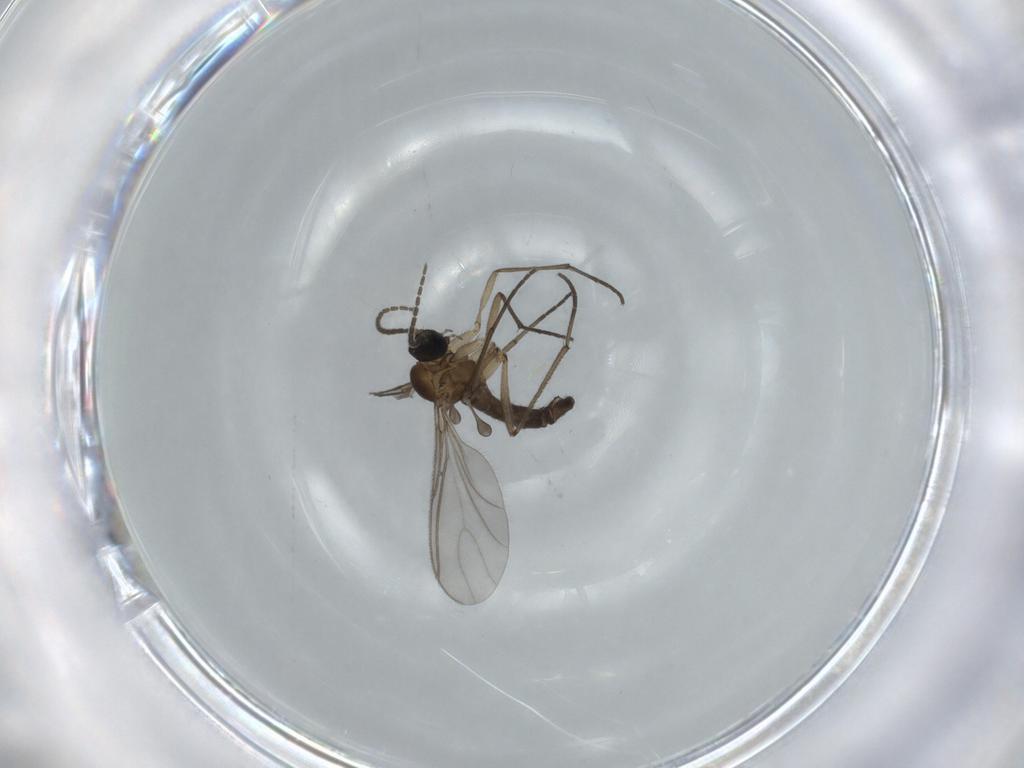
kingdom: Animalia
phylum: Arthropoda
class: Insecta
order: Diptera
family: Sciaridae
